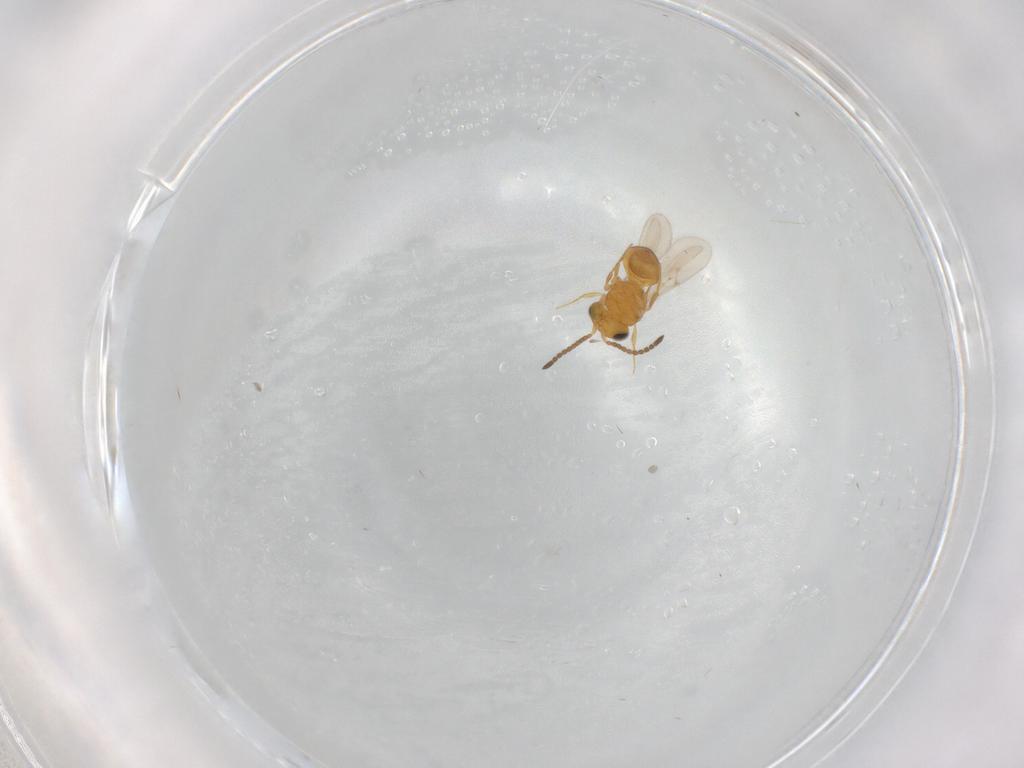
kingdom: Animalia
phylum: Arthropoda
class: Insecta
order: Hymenoptera
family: Scelionidae
